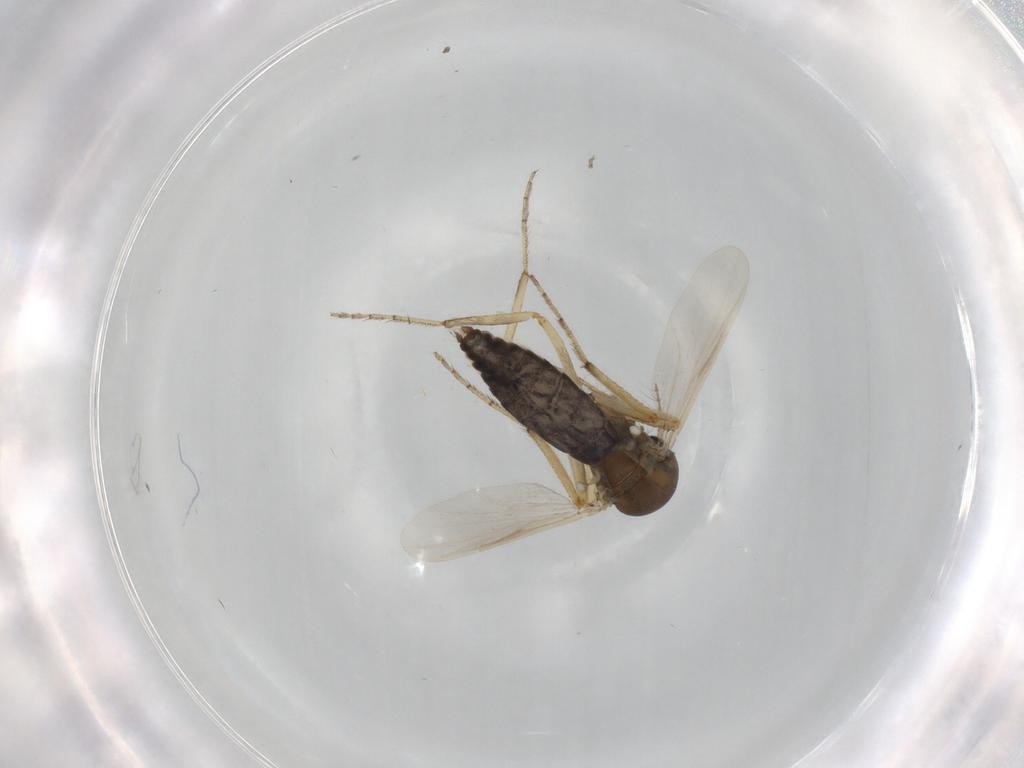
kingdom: Animalia
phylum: Arthropoda
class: Insecta
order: Diptera
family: Ceratopogonidae
